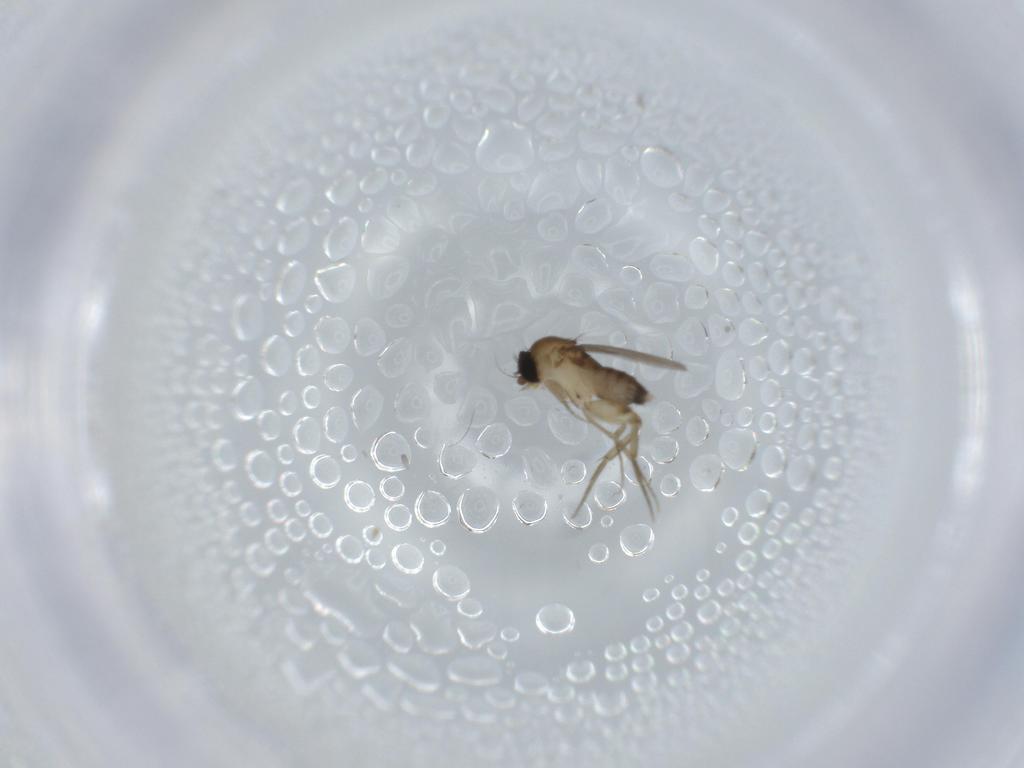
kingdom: Animalia
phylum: Arthropoda
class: Insecta
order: Diptera
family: Phoridae
